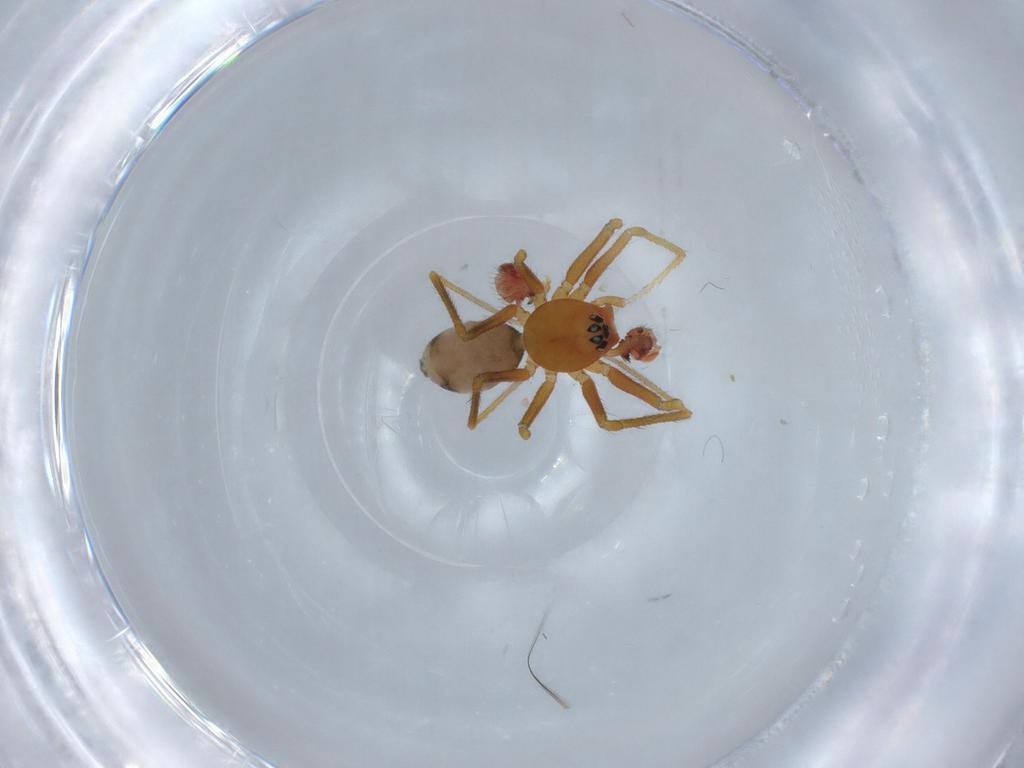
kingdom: Animalia
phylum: Arthropoda
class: Arachnida
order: Araneae
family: Linyphiidae
